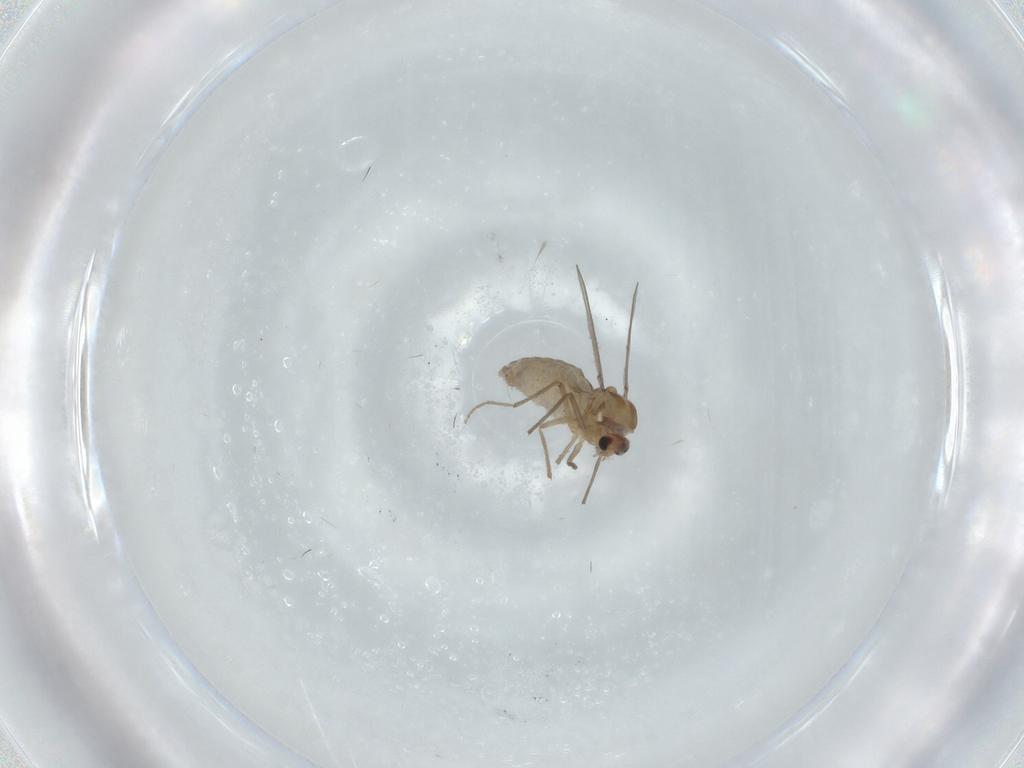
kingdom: Animalia
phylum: Arthropoda
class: Insecta
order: Diptera
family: Chironomidae
